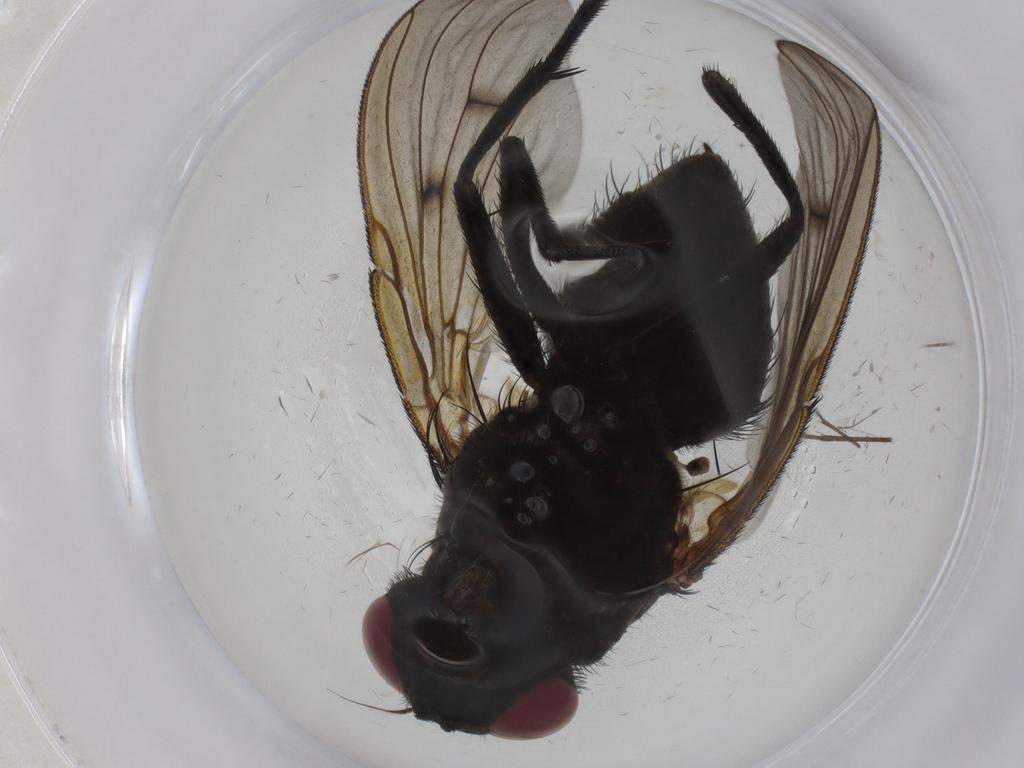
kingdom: Animalia
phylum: Arthropoda
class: Insecta
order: Diptera
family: Muscidae
